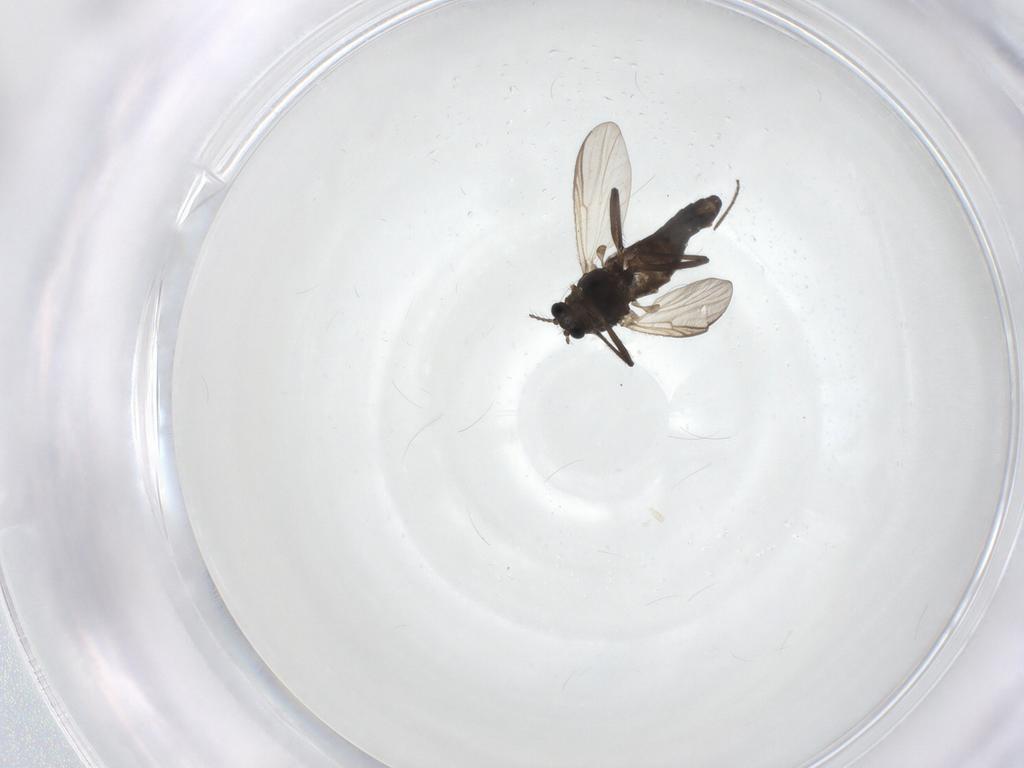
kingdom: Animalia
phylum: Arthropoda
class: Insecta
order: Diptera
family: Chironomidae
